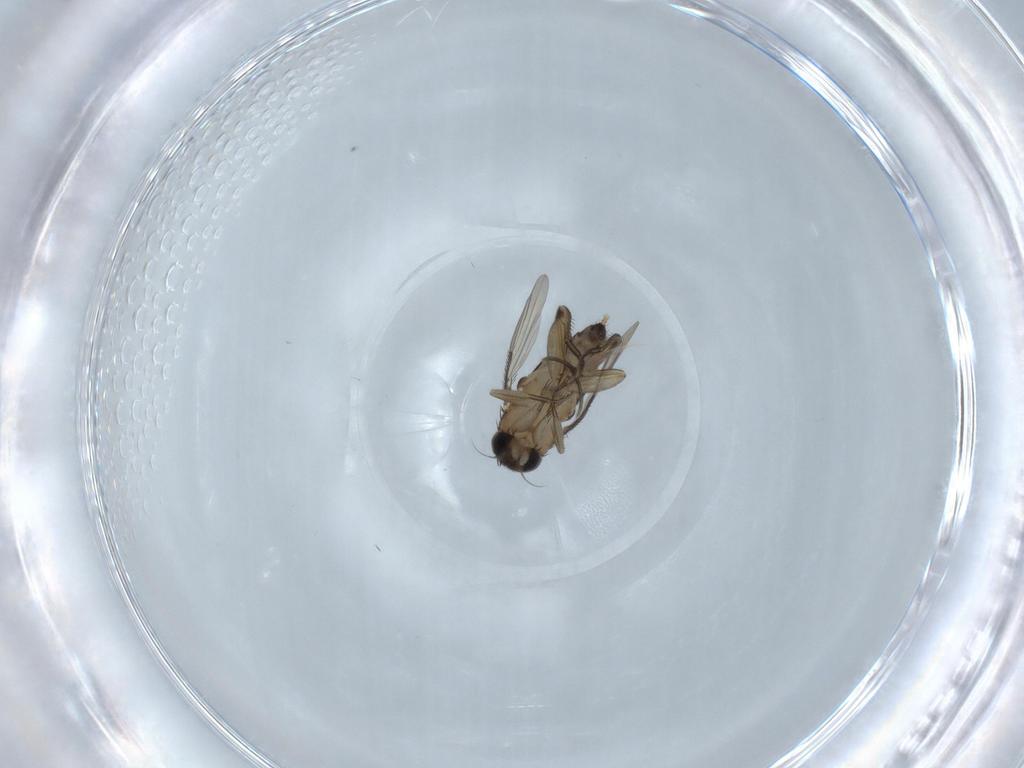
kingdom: Animalia
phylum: Arthropoda
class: Insecta
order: Diptera
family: Phoridae
